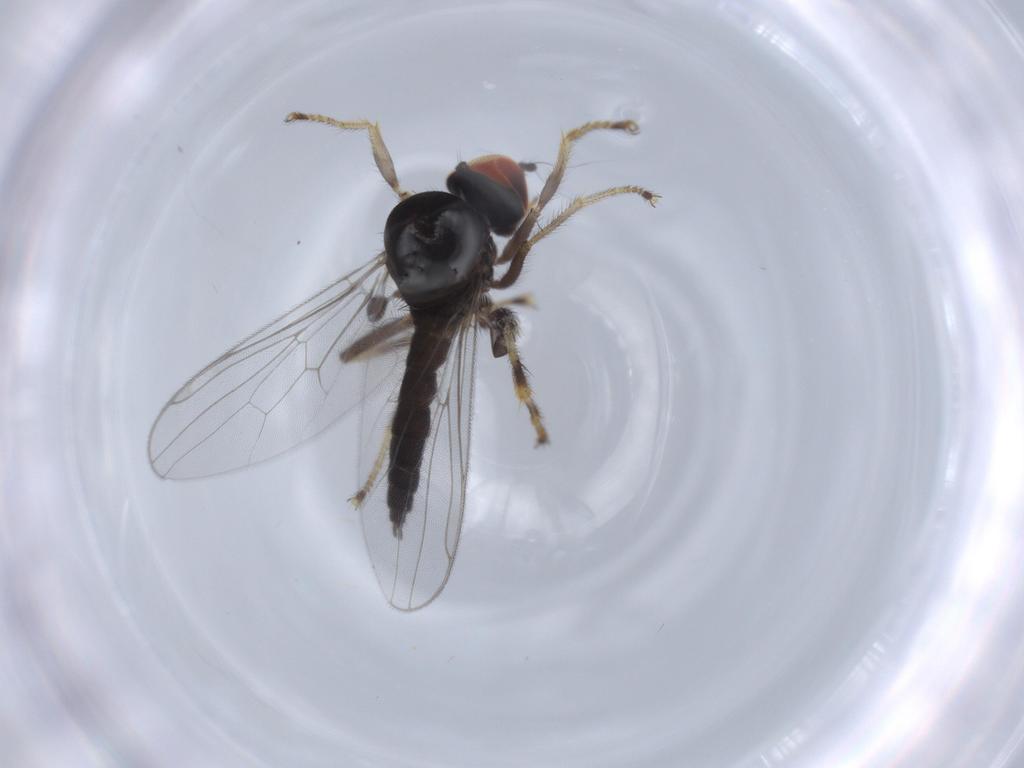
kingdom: Animalia
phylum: Arthropoda
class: Insecta
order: Diptera
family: Hybotidae
